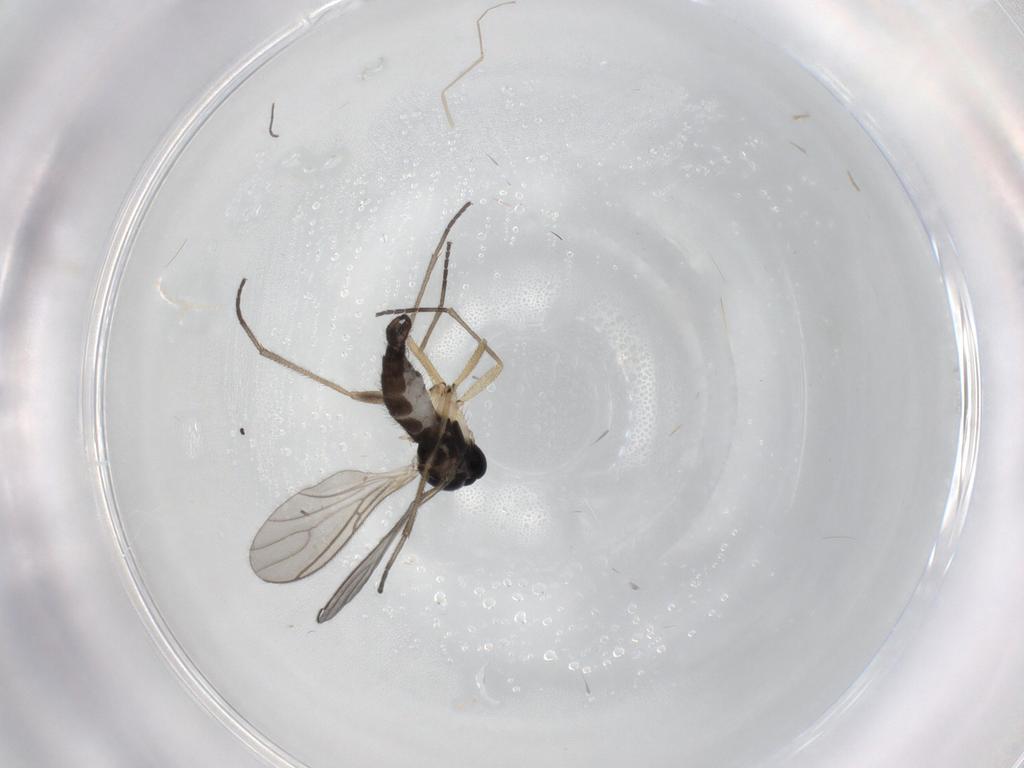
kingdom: Animalia
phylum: Arthropoda
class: Insecta
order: Diptera
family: Sciaridae
